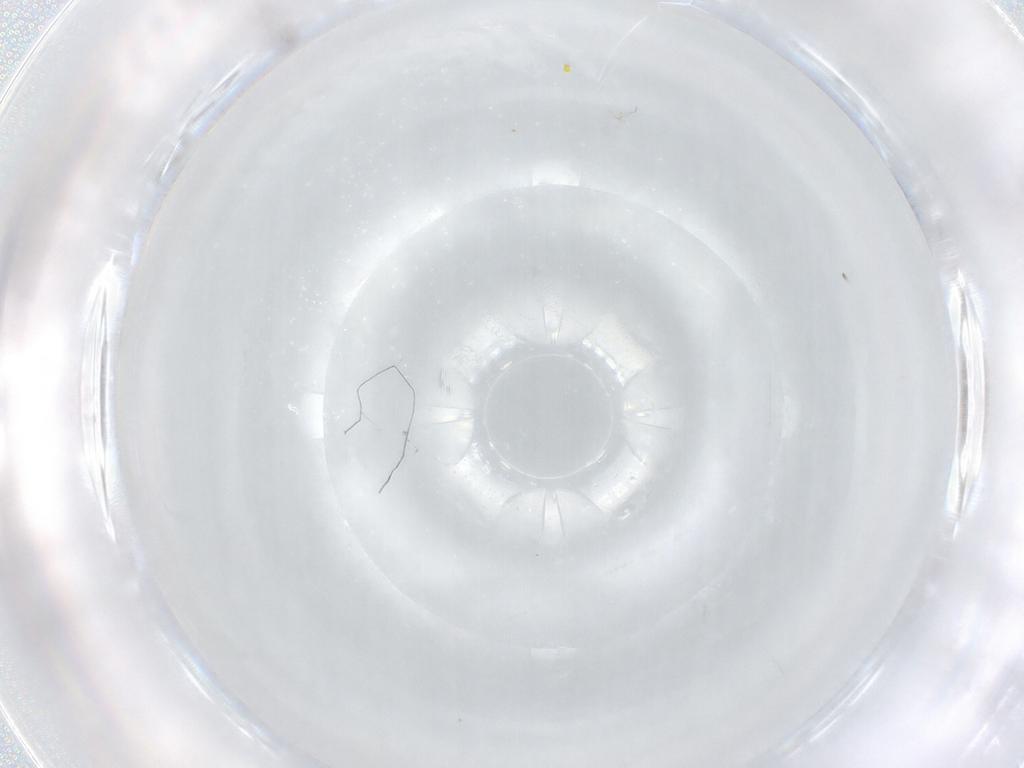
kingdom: Animalia
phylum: Arthropoda
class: Insecta
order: Diptera
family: Cecidomyiidae
